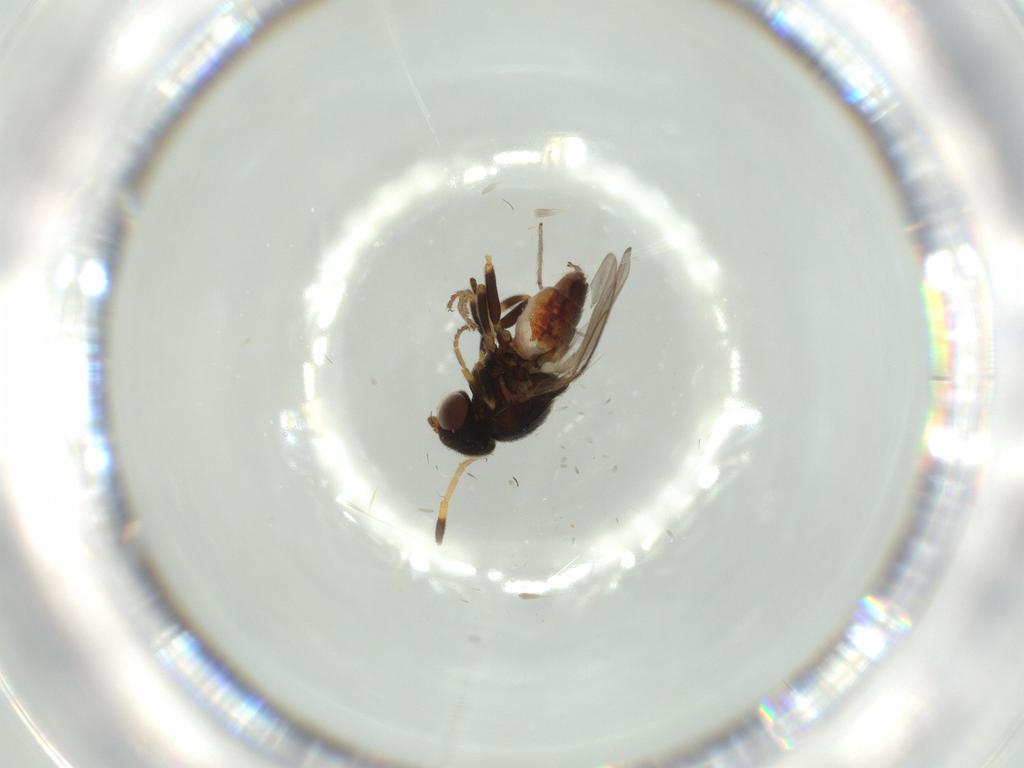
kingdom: Animalia
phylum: Arthropoda
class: Insecta
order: Diptera
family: Chloropidae
